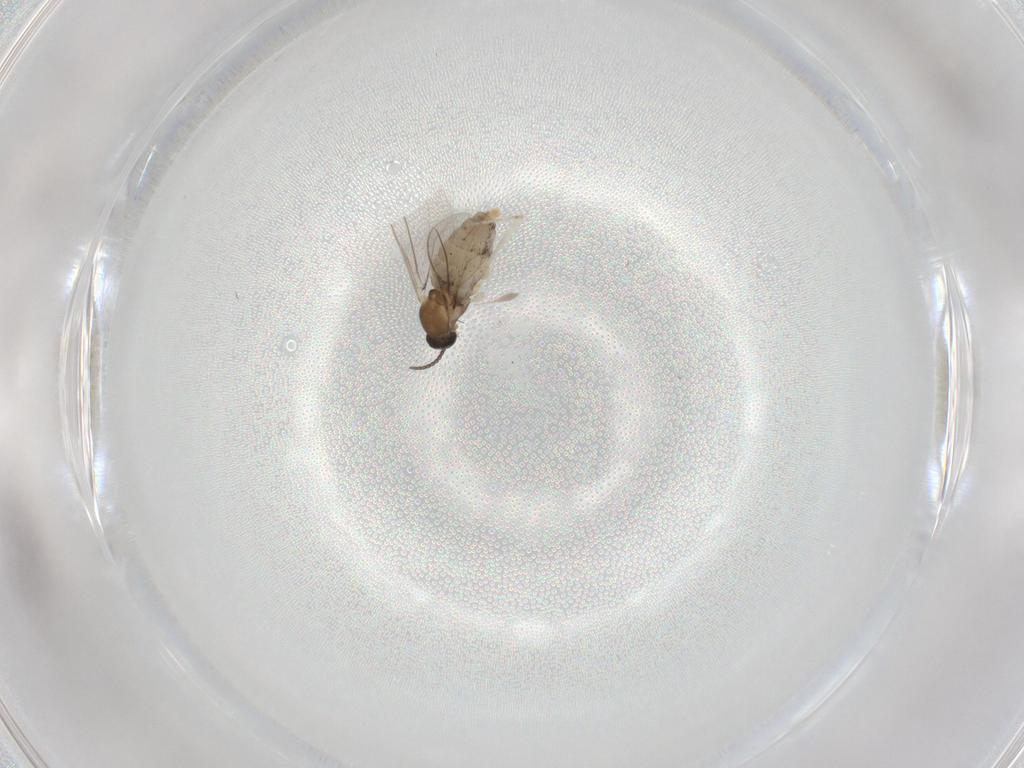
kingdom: Animalia
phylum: Arthropoda
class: Insecta
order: Diptera
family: Cecidomyiidae
